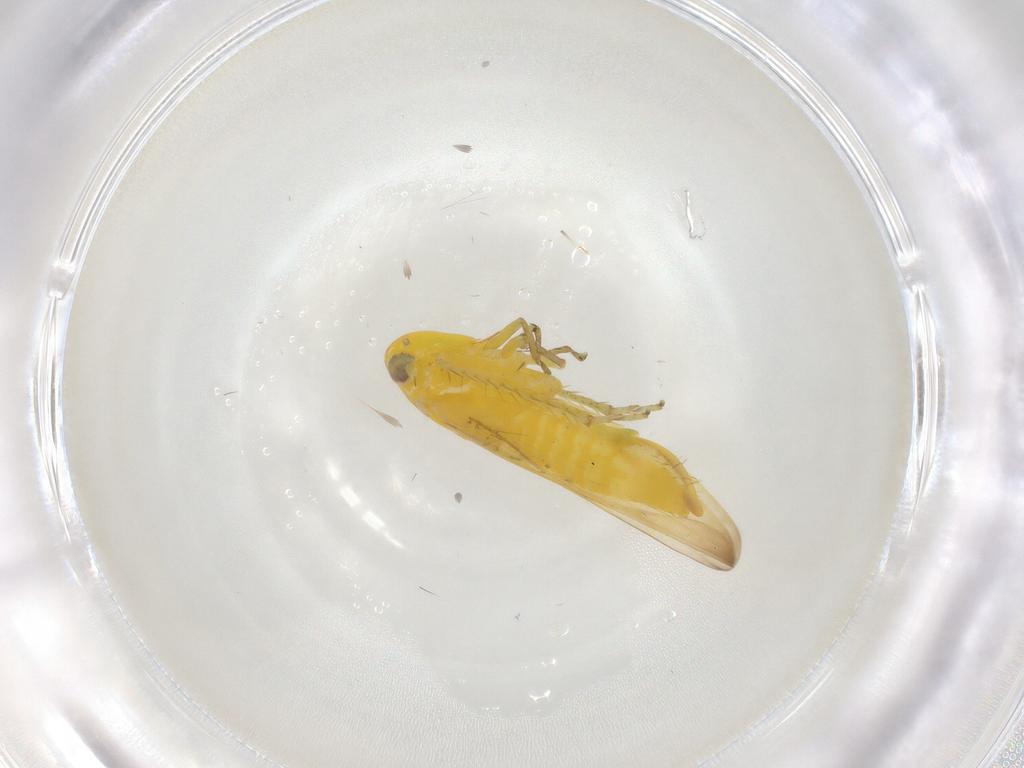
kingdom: Animalia
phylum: Arthropoda
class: Insecta
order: Hemiptera
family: Cicadellidae
